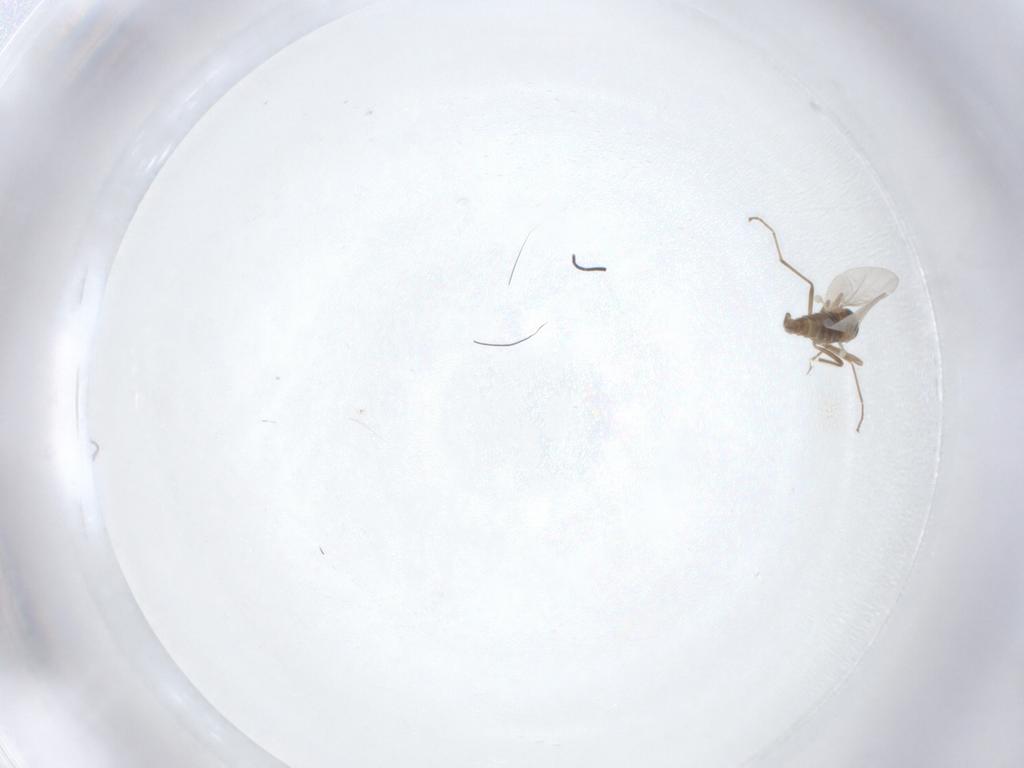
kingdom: Animalia
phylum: Arthropoda
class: Insecta
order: Diptera
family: Cecidomyiidae
